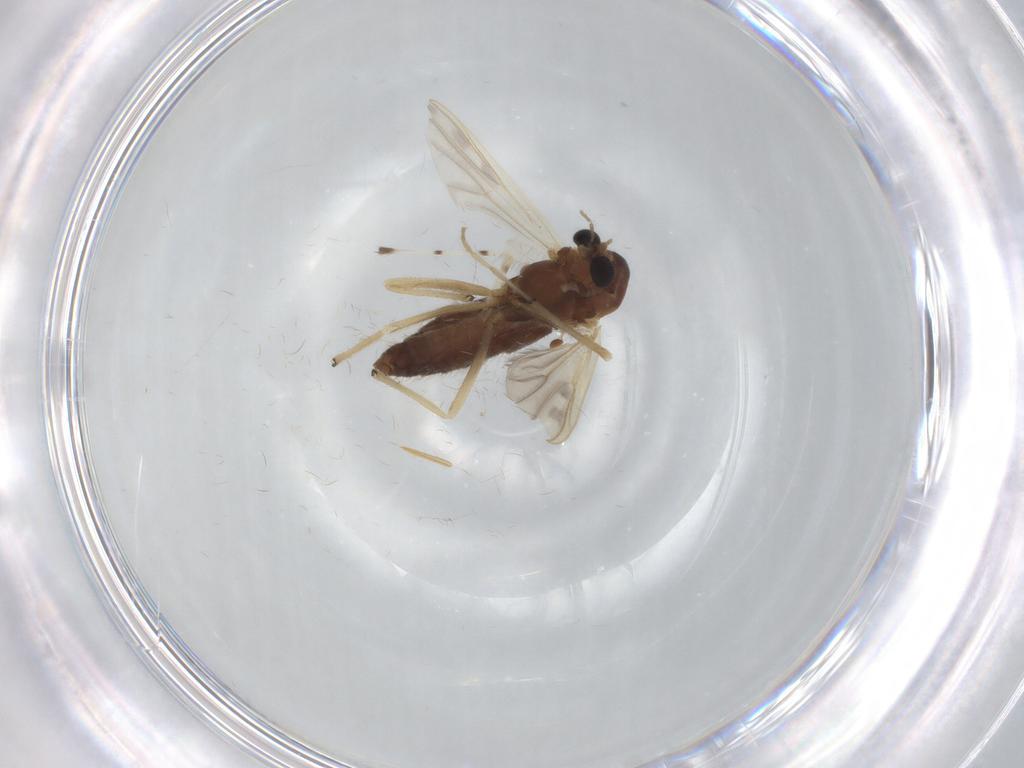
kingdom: Animalia
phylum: Arthropoda
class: Insecta
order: Diptera
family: Chironomidae
